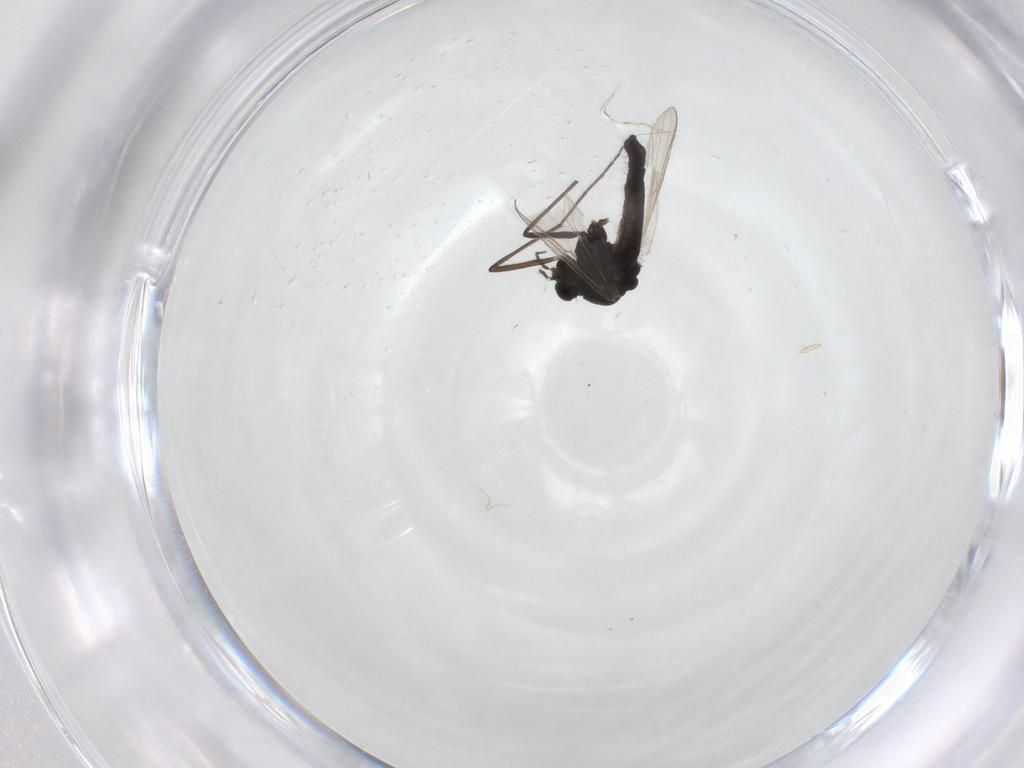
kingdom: Animalia
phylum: Arthropoda
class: Insecta
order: Diptera
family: Chironomidae
